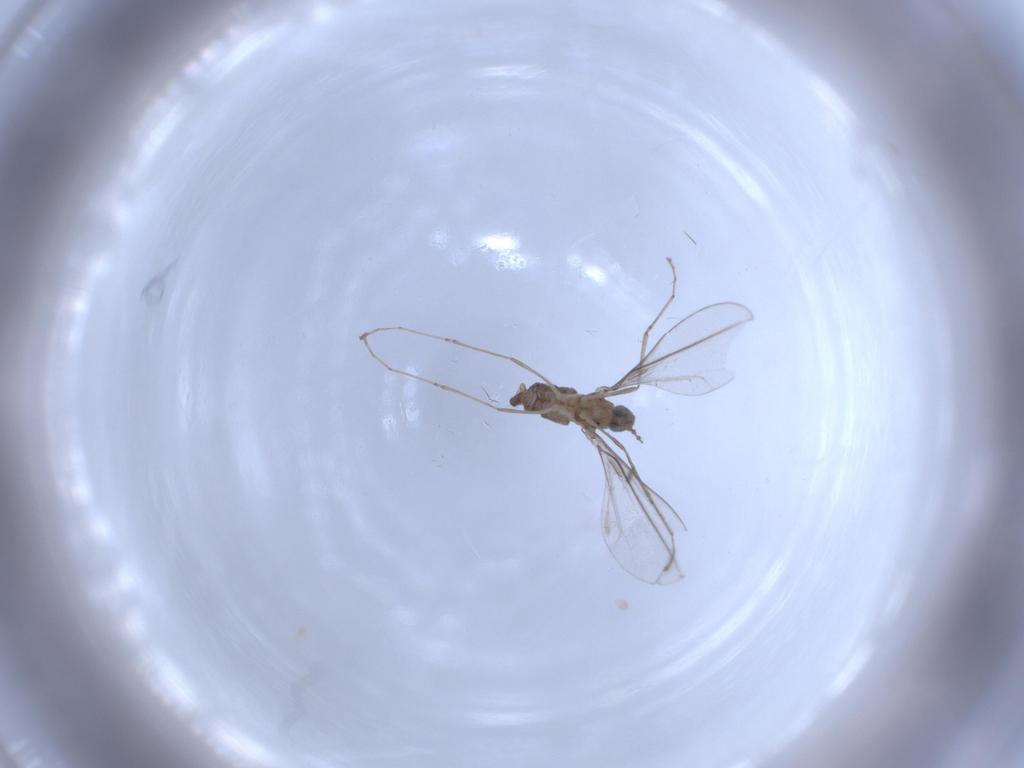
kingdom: Animalia
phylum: Arthropoda
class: Insecta
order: Diptera
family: Cecidomyiidae
